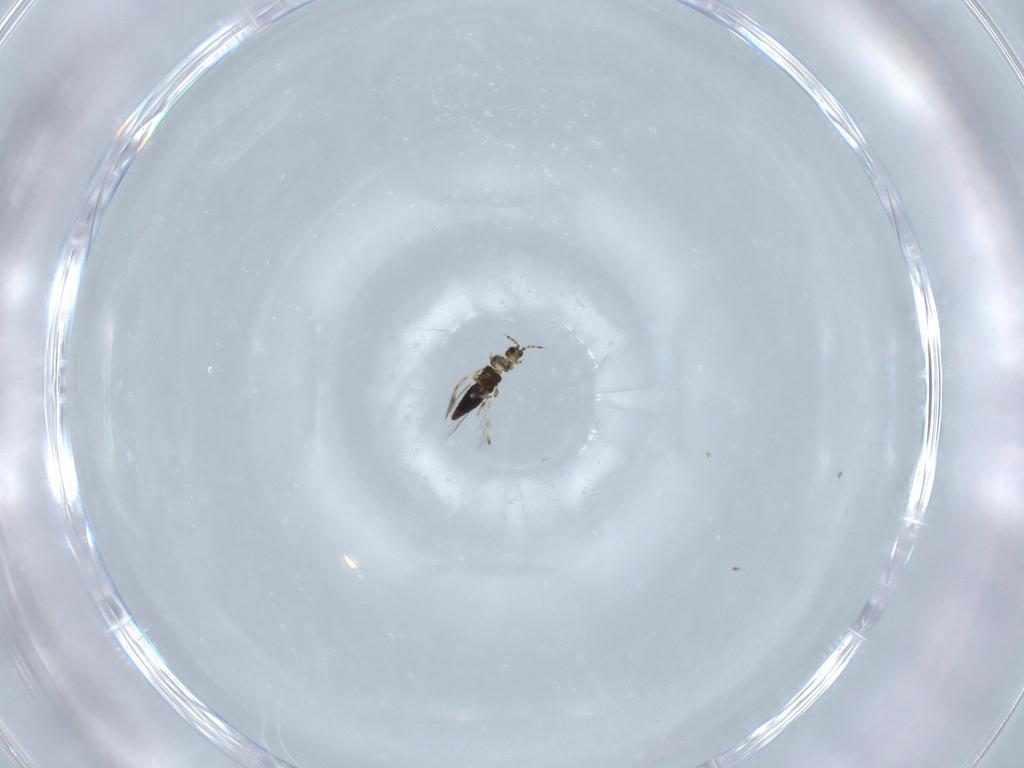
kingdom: Animalia
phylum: Arthropoda
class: Insecta
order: Thysanoptera
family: Thripidae
